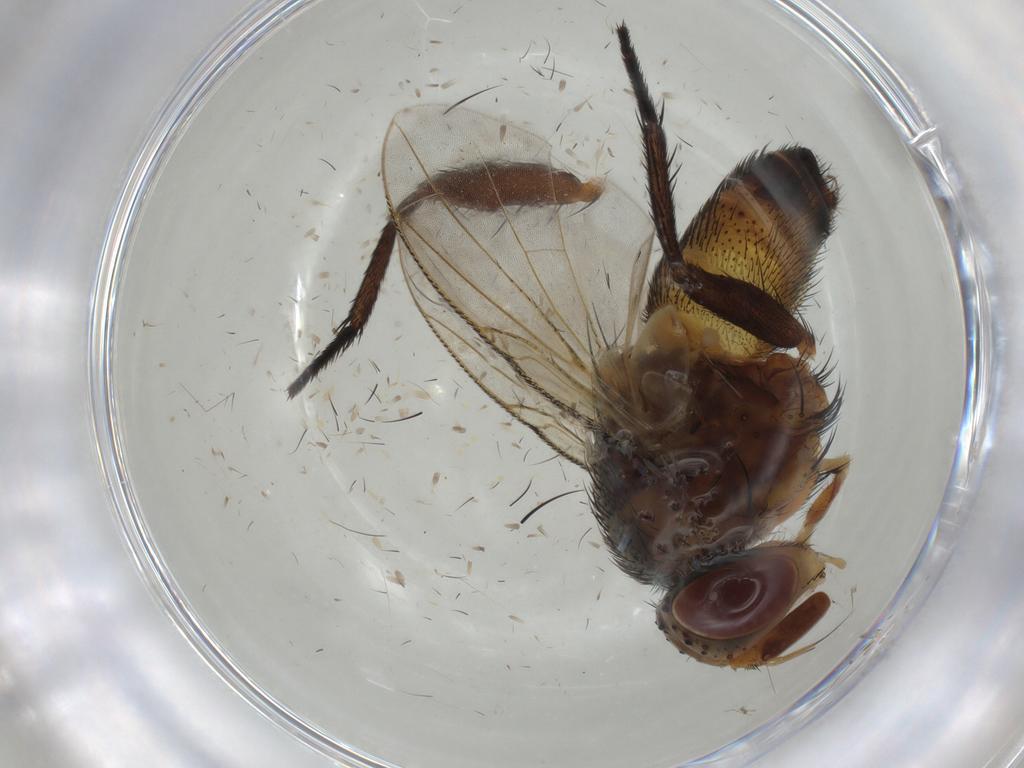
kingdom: Animalia
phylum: Arthropoda
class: Insecta
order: Diptera
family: Tachinidae
